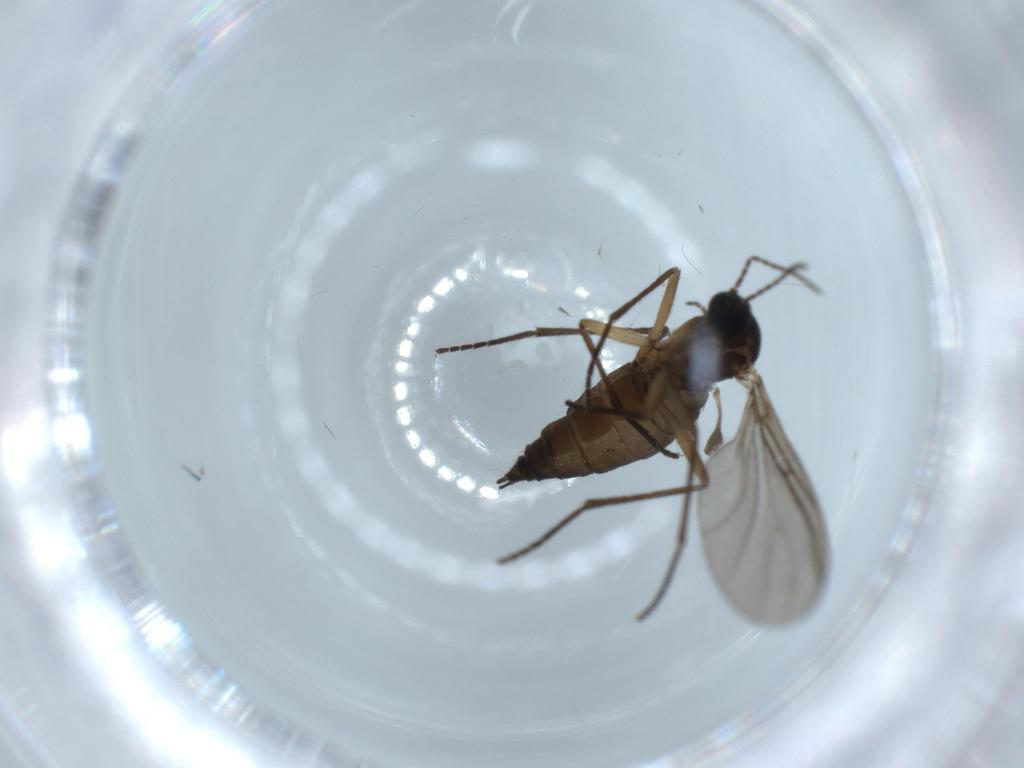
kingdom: Animalia
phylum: Arthropoda
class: Insecta
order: Diptera
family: Sciaridae
